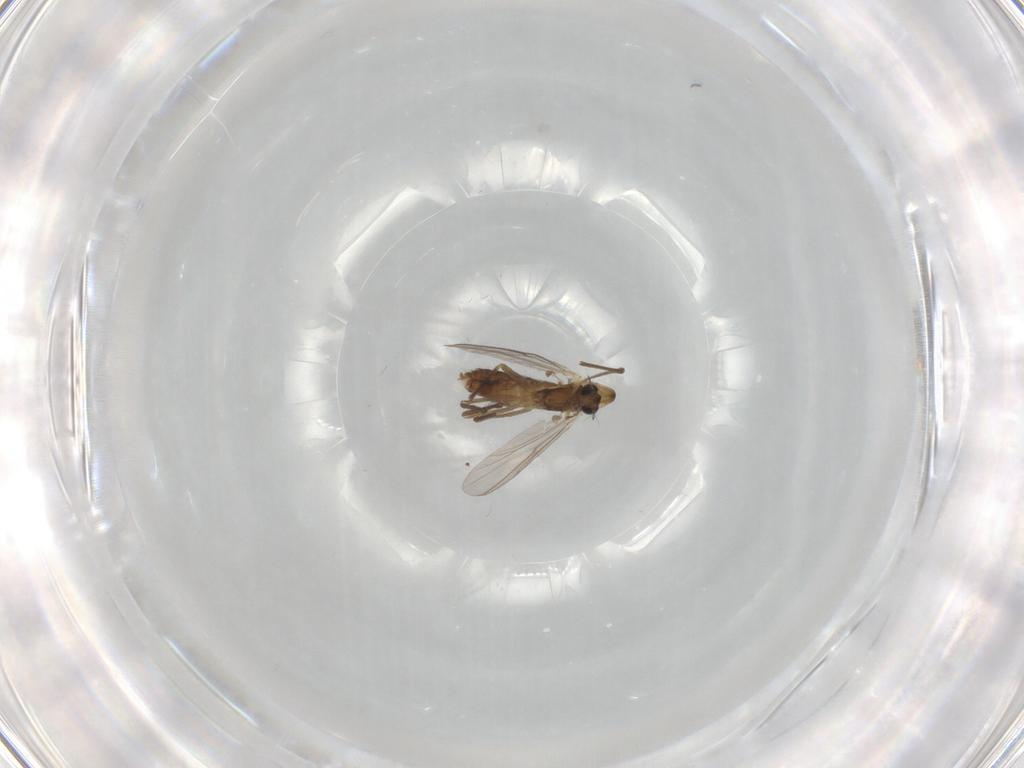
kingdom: Animalia
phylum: Arthropoda
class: Insecta
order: Diptera
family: Chironomidae
